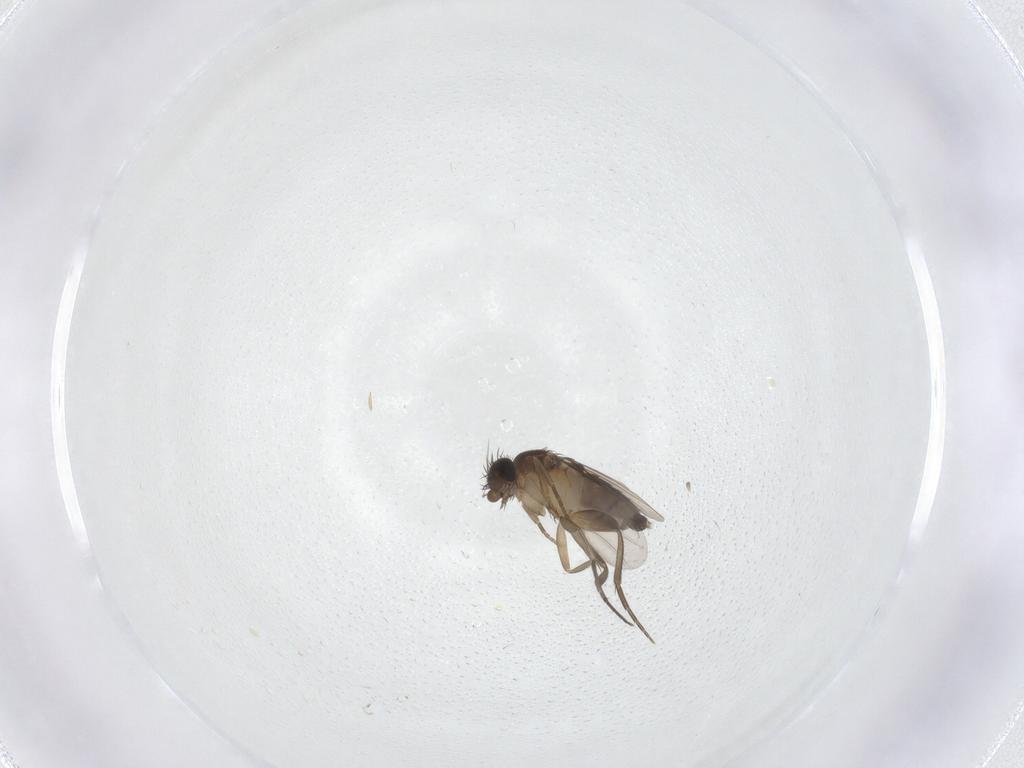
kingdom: Animalia
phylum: Arthropoda
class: Insecta
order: Diptera
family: Cecidomyiidae
